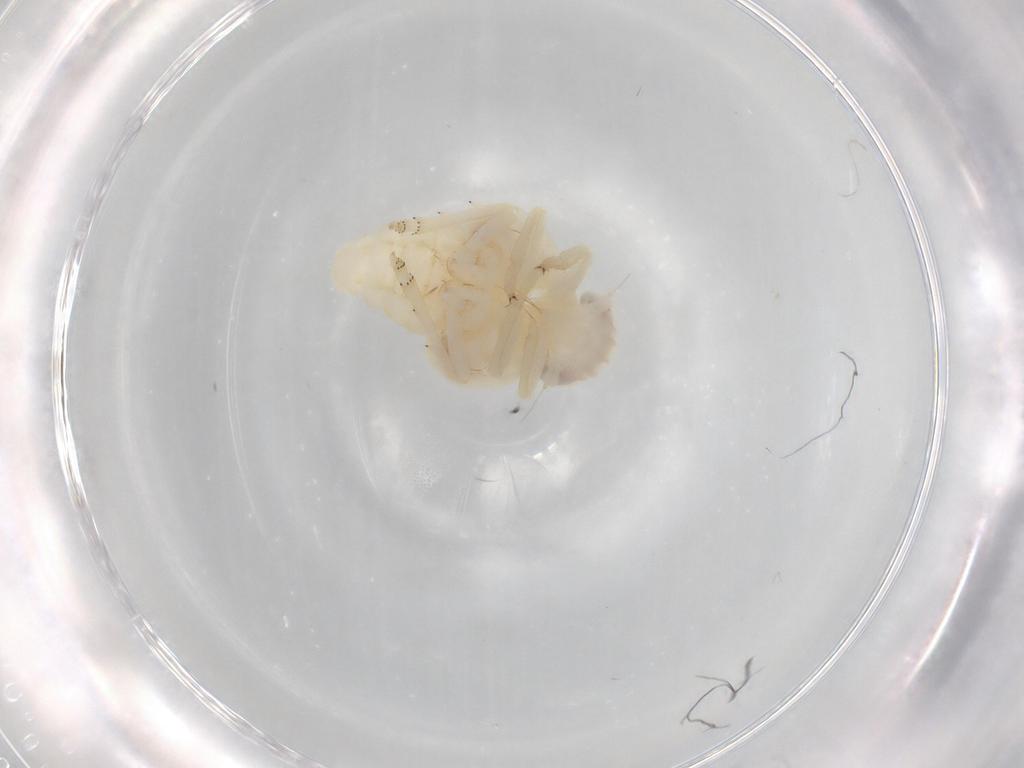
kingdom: Animalia
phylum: Arthropoda
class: Insecta
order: Hemiptera
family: Nogodinidae
